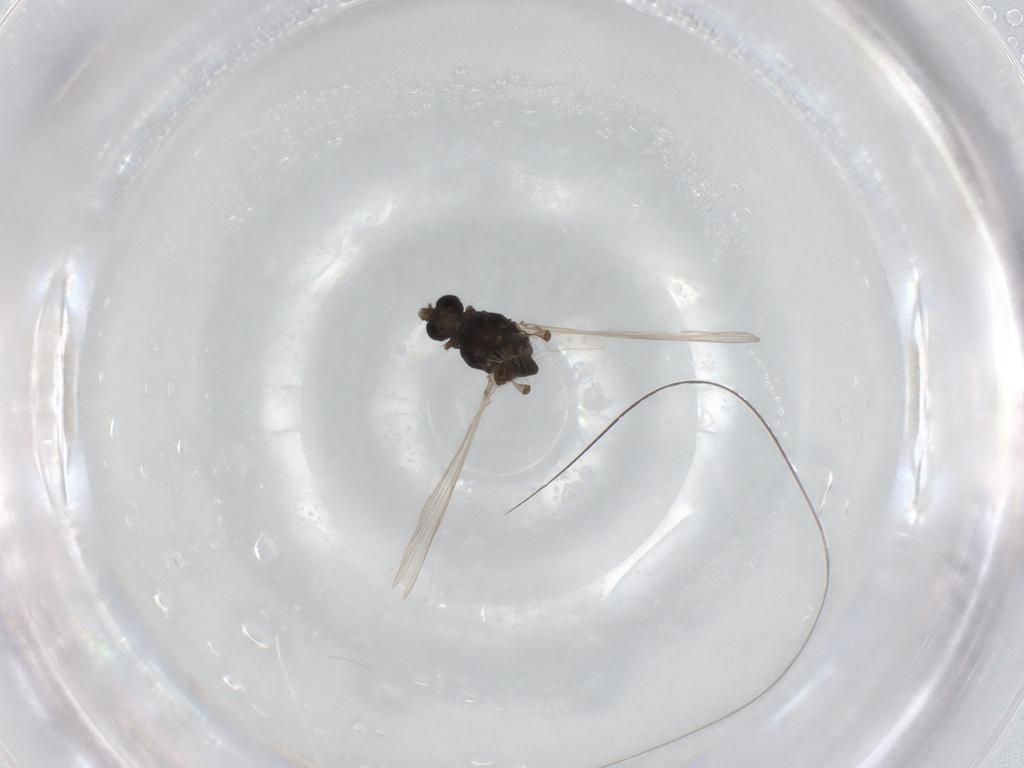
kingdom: Animalia
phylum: Arthropoda
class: Insecta
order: Diptera
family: Chironomidae
